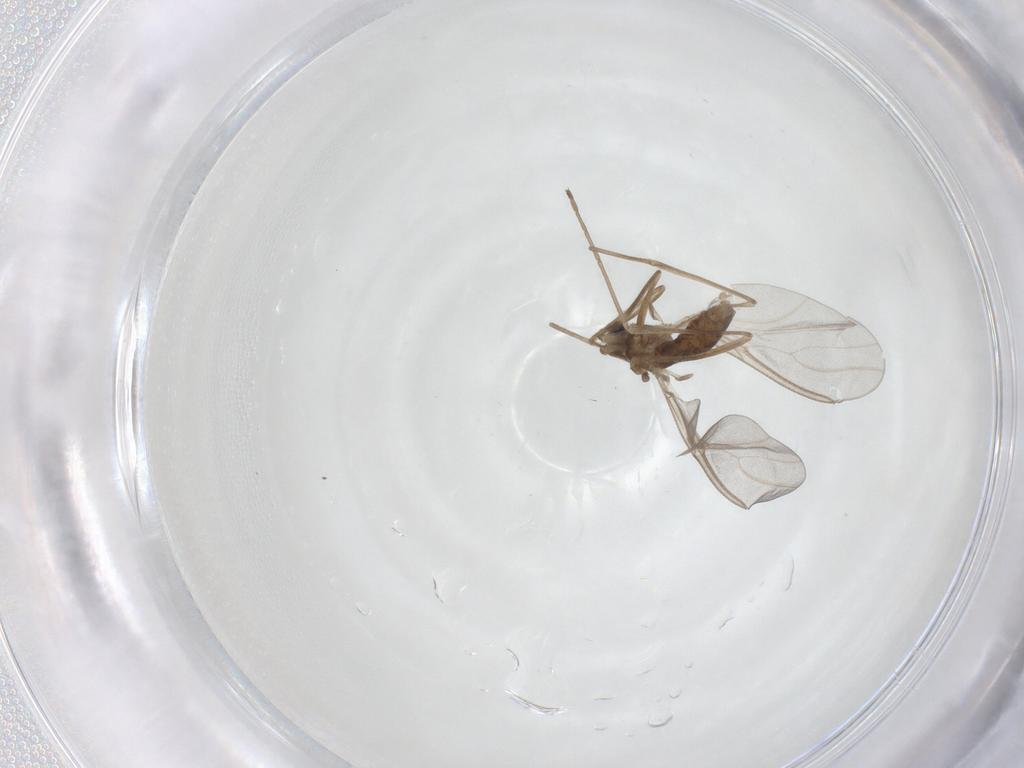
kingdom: Animalia
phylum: Arthropoda
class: Insecta
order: Diptera
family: Cecidomyiidae
